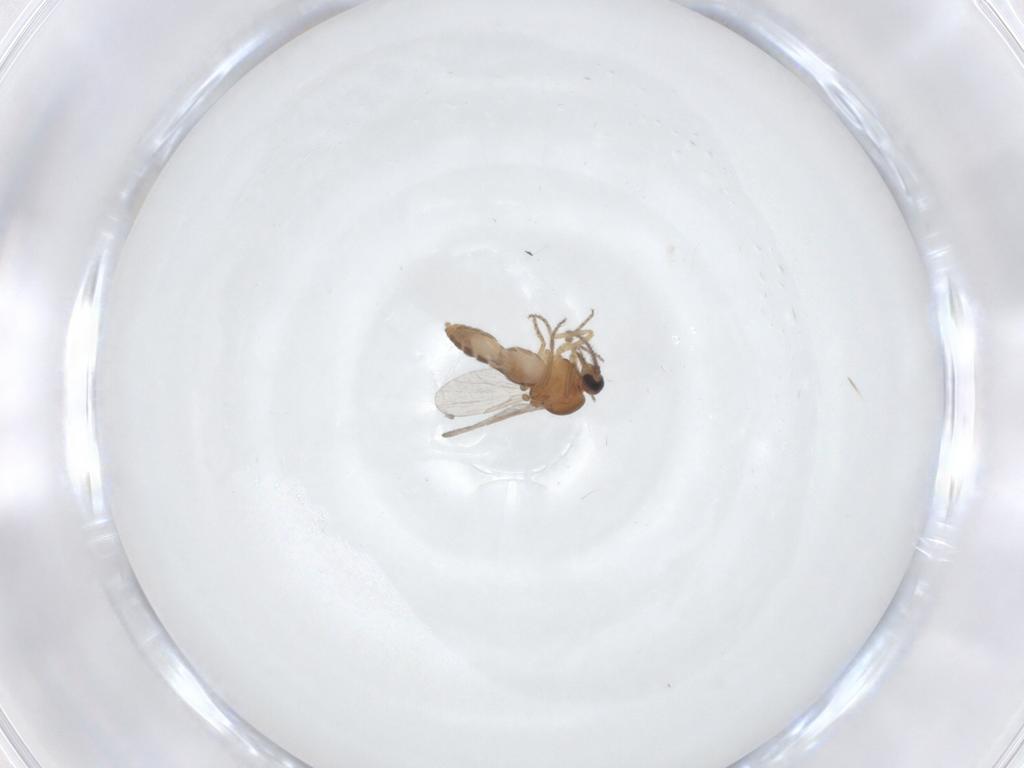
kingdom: Animalia
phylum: Arthropoda
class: Insecta
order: Diptera
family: Ceratopogonidae
